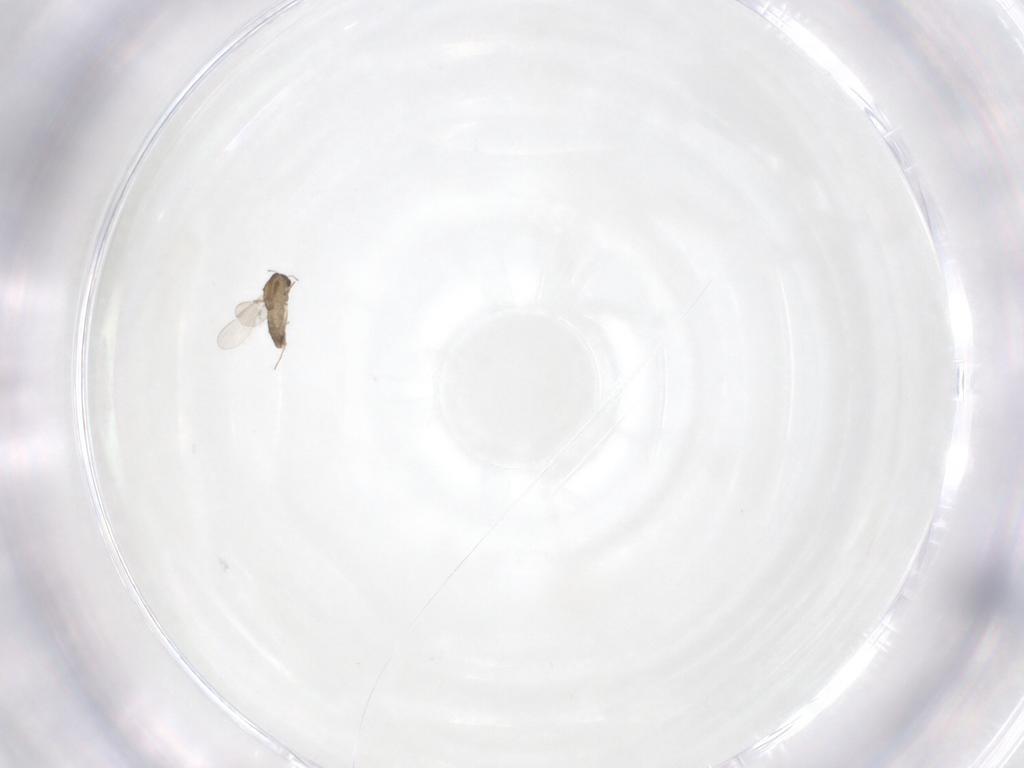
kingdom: Animalia
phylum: Arthropoda
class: Insecta
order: Diptera
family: Chironomidae
